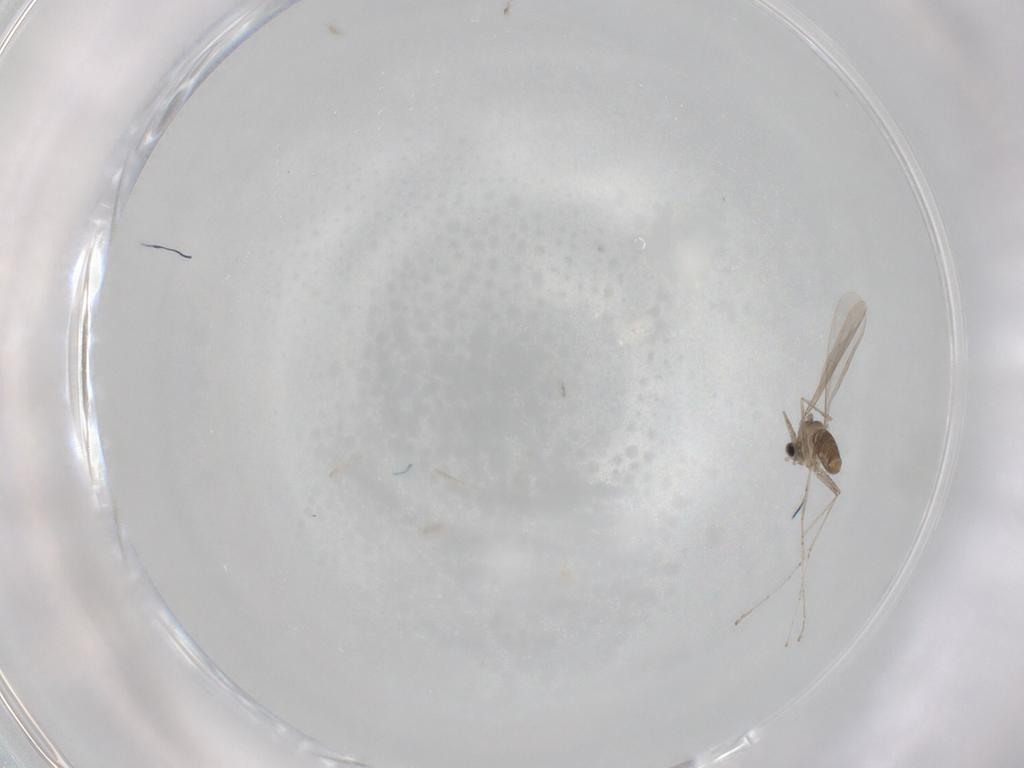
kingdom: Animalia
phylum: Arthropoda
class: Insecta
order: Diptera
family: Cecidomyiidae
